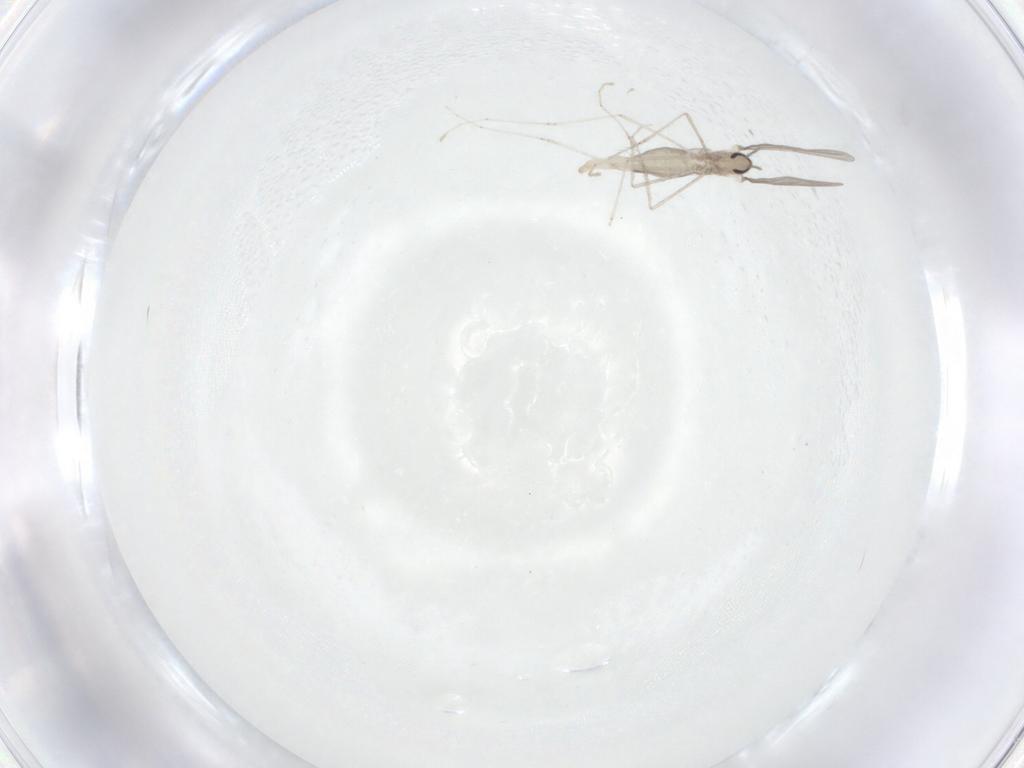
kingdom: Animalia
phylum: Arthropoda
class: Insecta
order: Diptera
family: Cecidomyiidae
